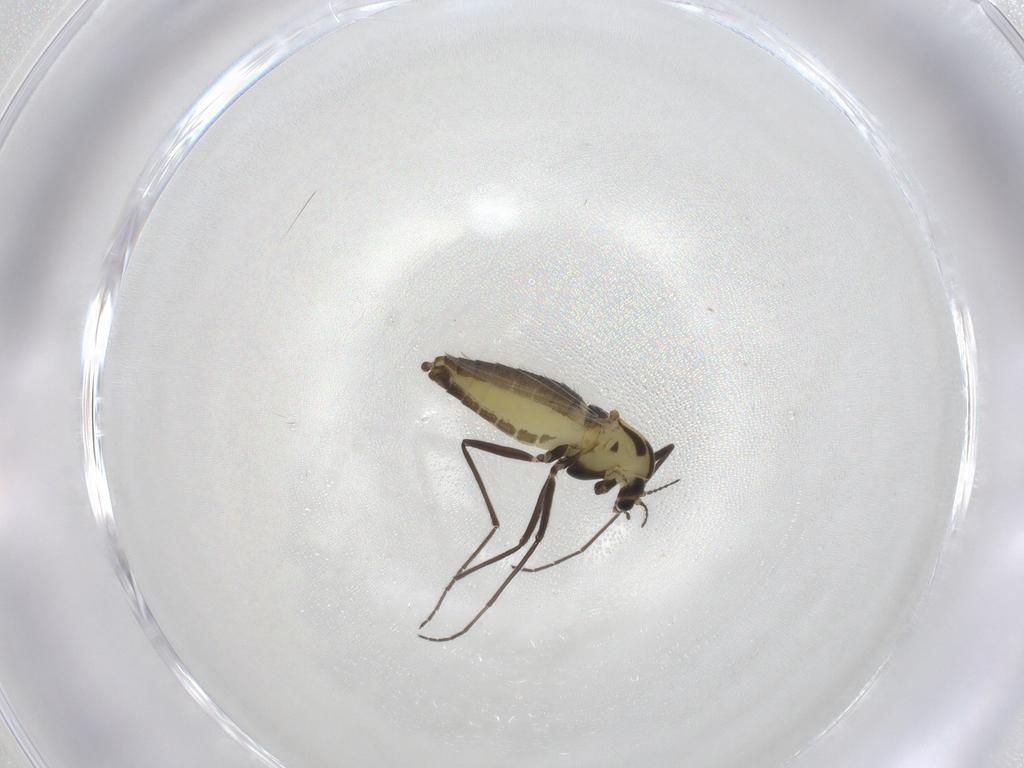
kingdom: Animalia
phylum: Arthropoda
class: Insecta
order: Diptera
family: Chironomidae
